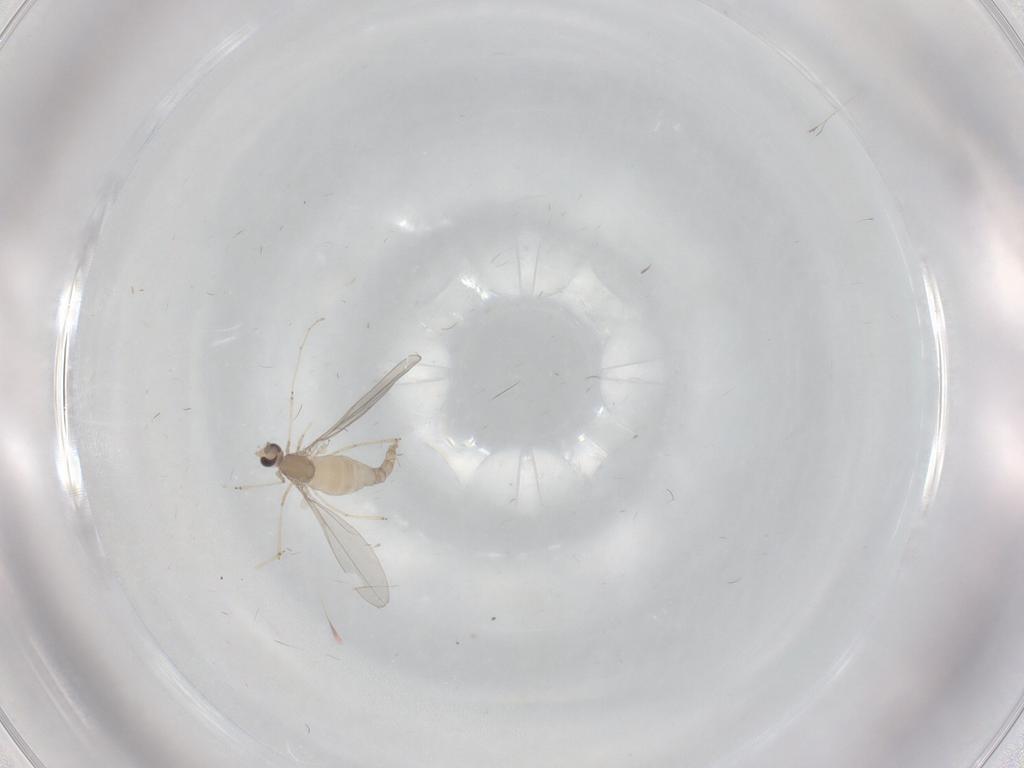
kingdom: Animalia
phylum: Arthropoda
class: Insecta
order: Diptera
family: Cecidomyiidae
